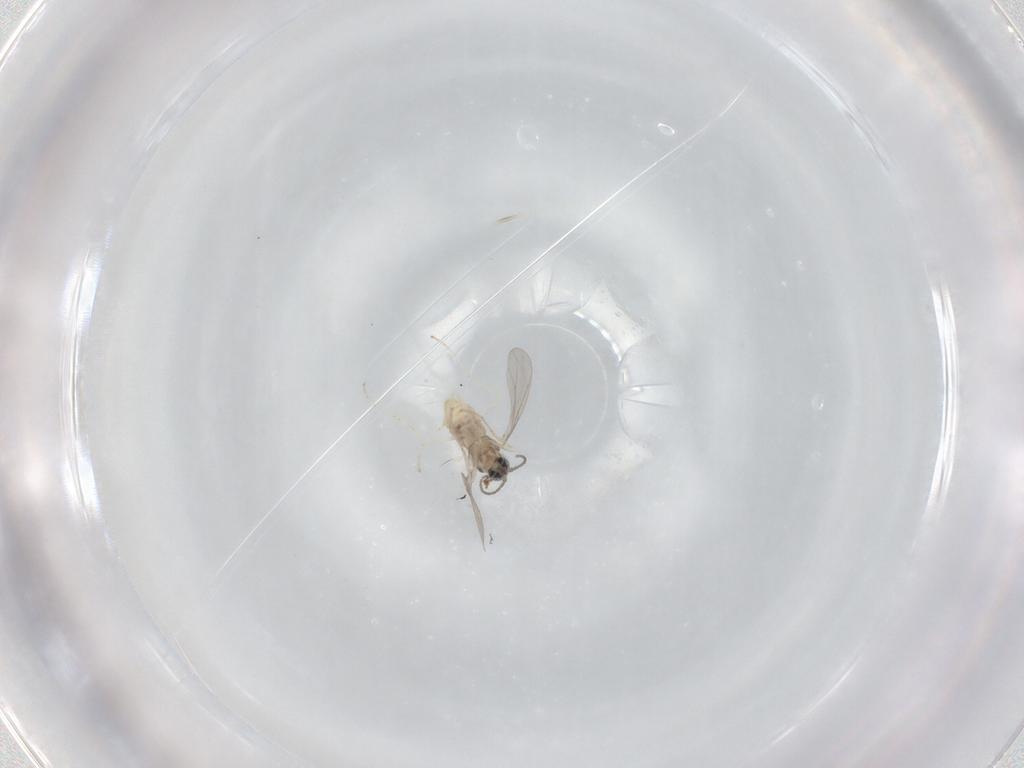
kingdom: Animalia
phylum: Arthropoda
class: Insecta
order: Diptera
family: Cecidomyiidae
